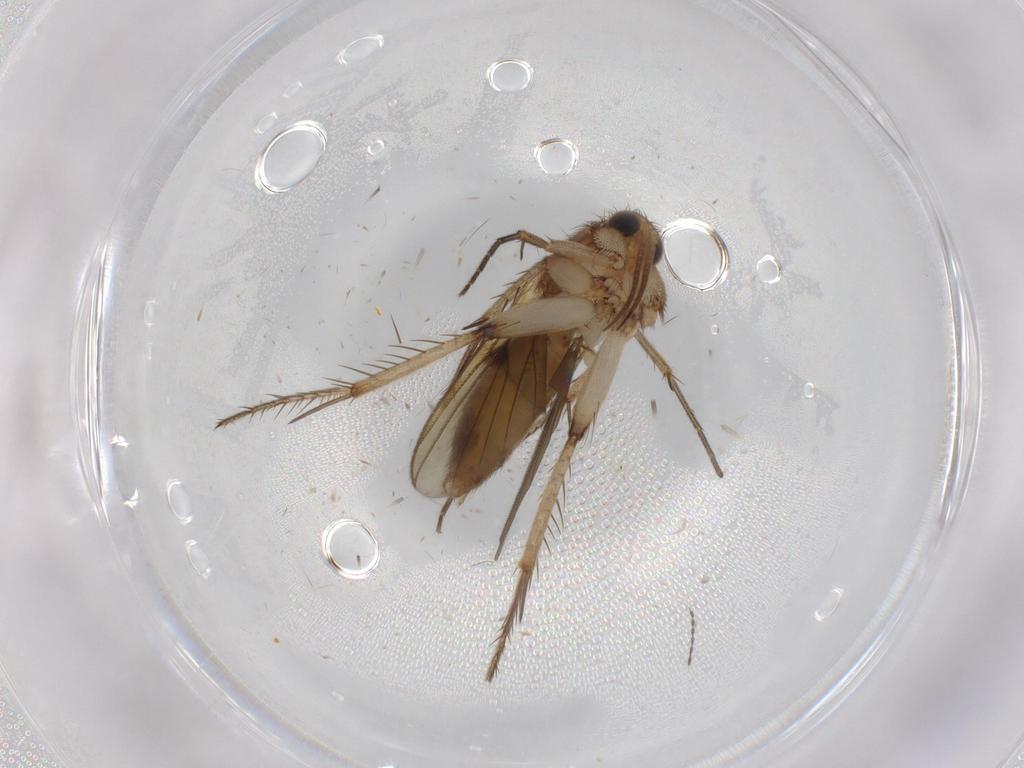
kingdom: Animalia
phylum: Arthropoda
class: Insecta
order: Diptera
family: Cecidomyiidae
